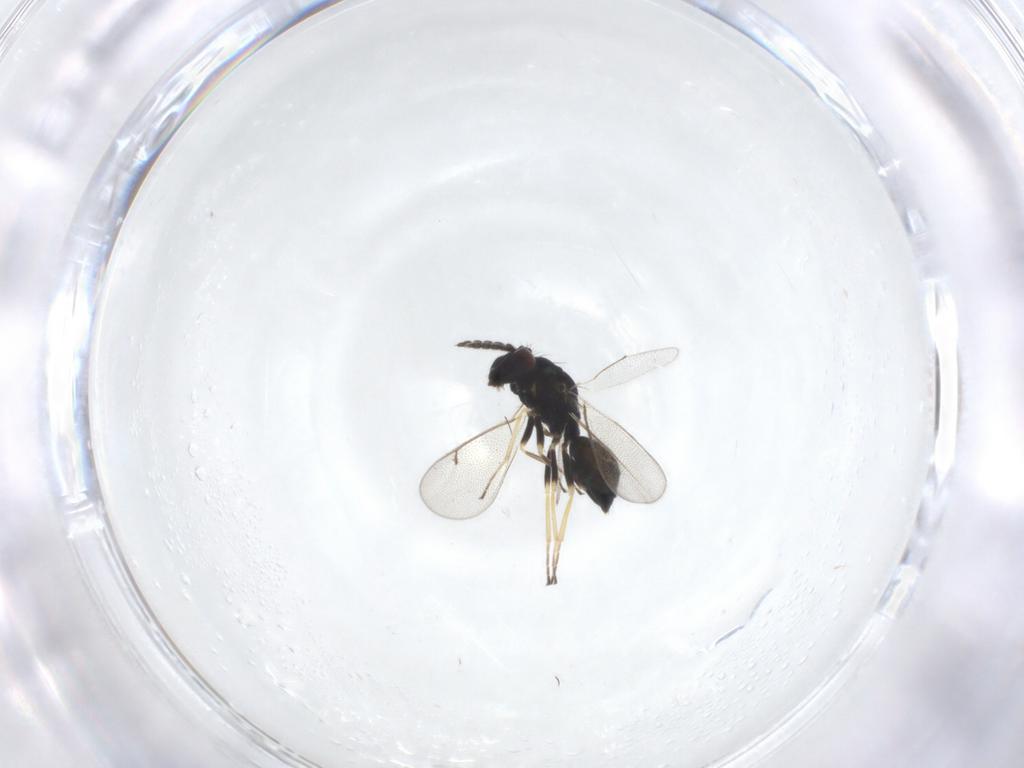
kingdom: Animalia
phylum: Arthropoda
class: Insecta
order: Hymenoptera
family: Eulophidae
